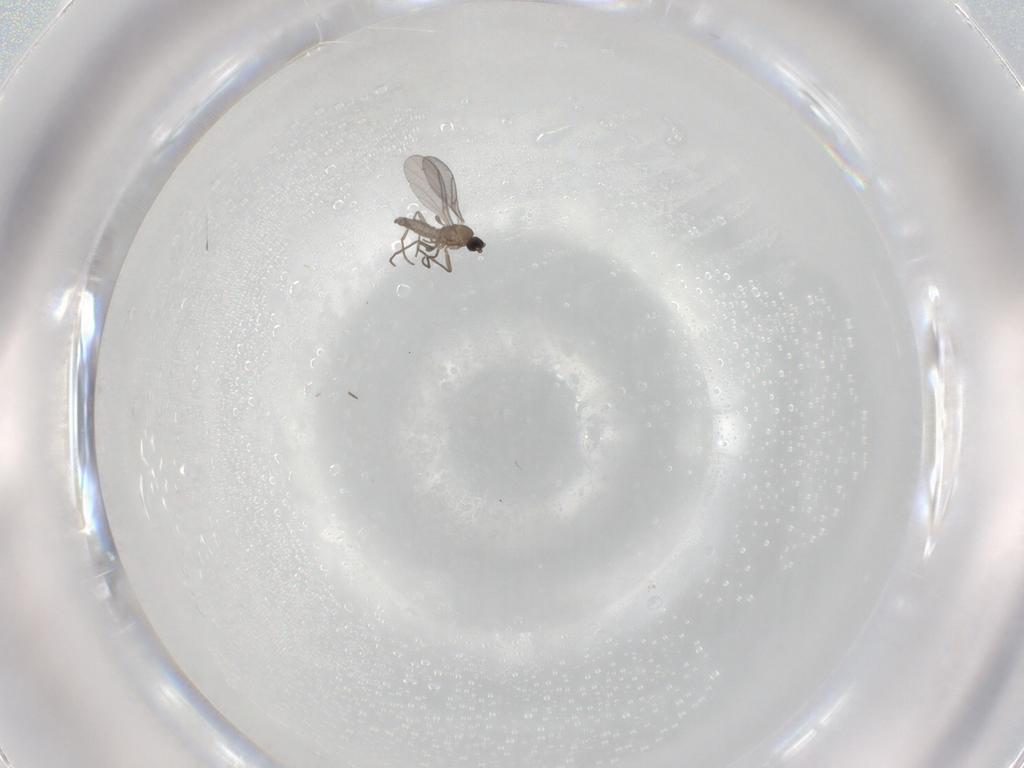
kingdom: Animalia
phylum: Arthropoda
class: Insecta
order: Diptera
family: Sciaridae
